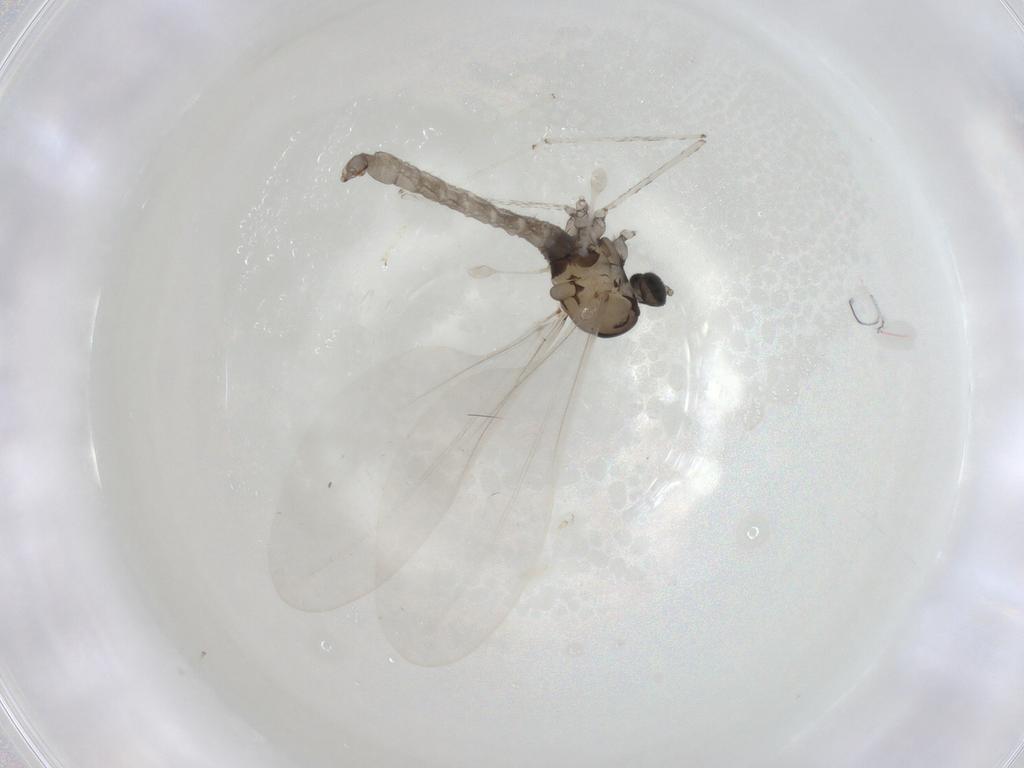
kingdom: Animalia
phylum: Arthropoda
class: Insecta
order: Diptera
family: Cecidomyiidae
